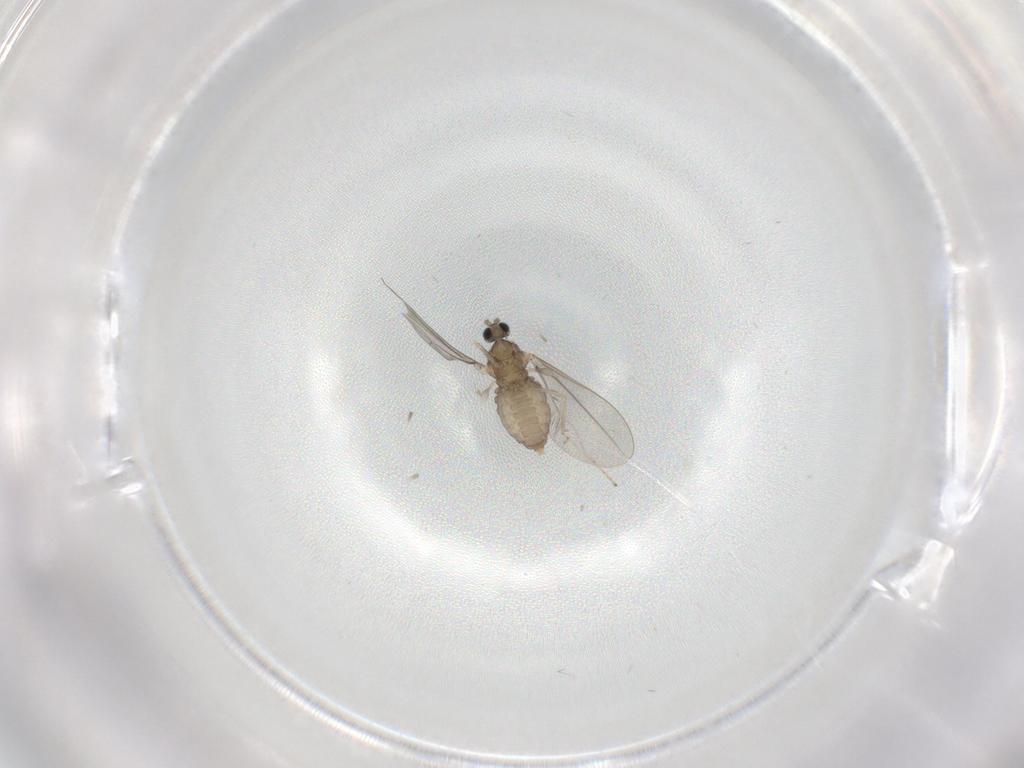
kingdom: Animalia
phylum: Arthropoda
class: Insecta
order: Diptera
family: Cecidomyiidae
